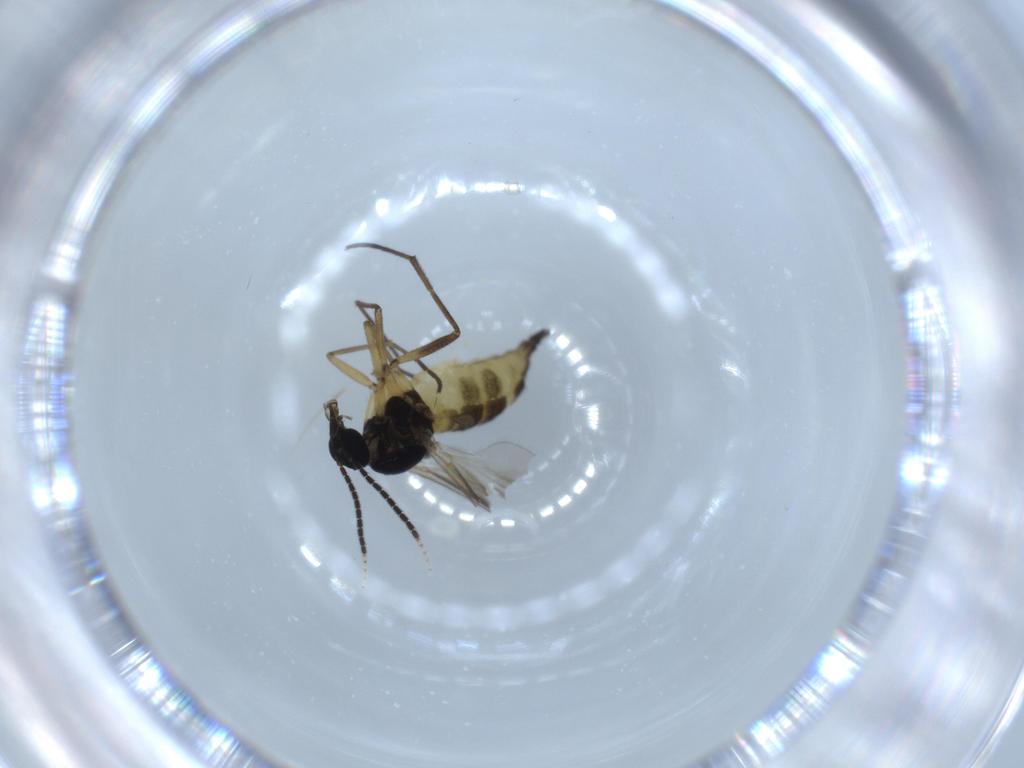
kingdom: Animalia
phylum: Arthropoda
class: Insecta
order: Diptera
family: Sciaridae
